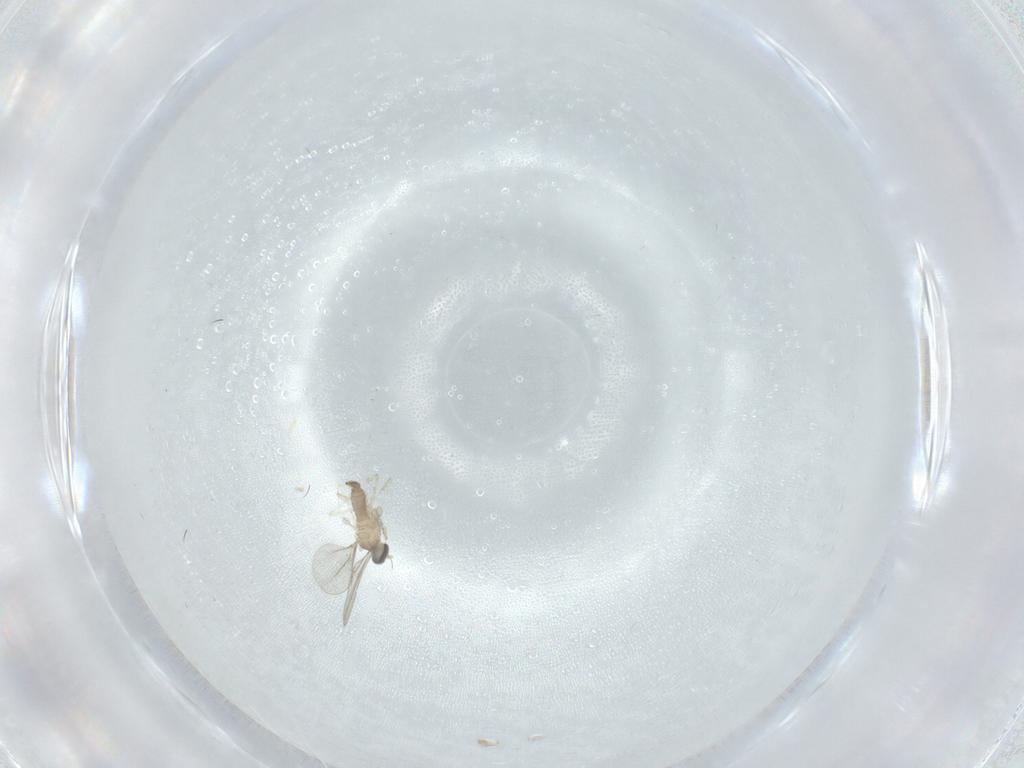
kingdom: Animalia
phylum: Arthropoda
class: Insecta
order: Diptera
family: Cecidomyiidae
